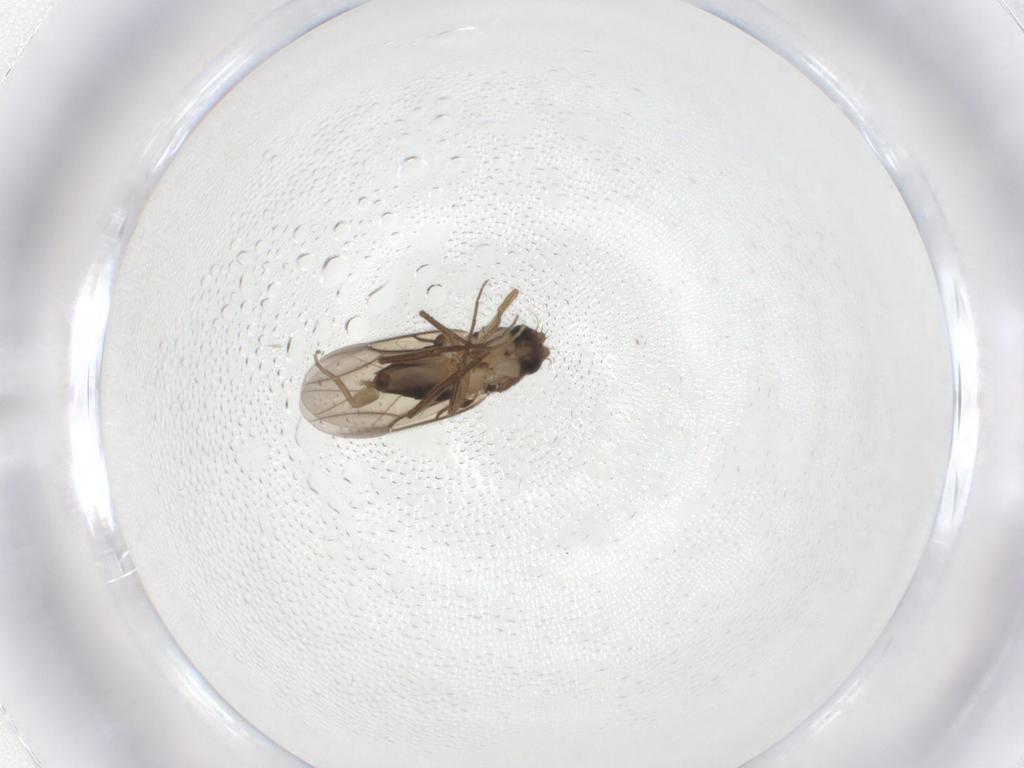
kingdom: Animalia
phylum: Arthropoda
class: Insecta
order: Diptera
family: Phoridae
